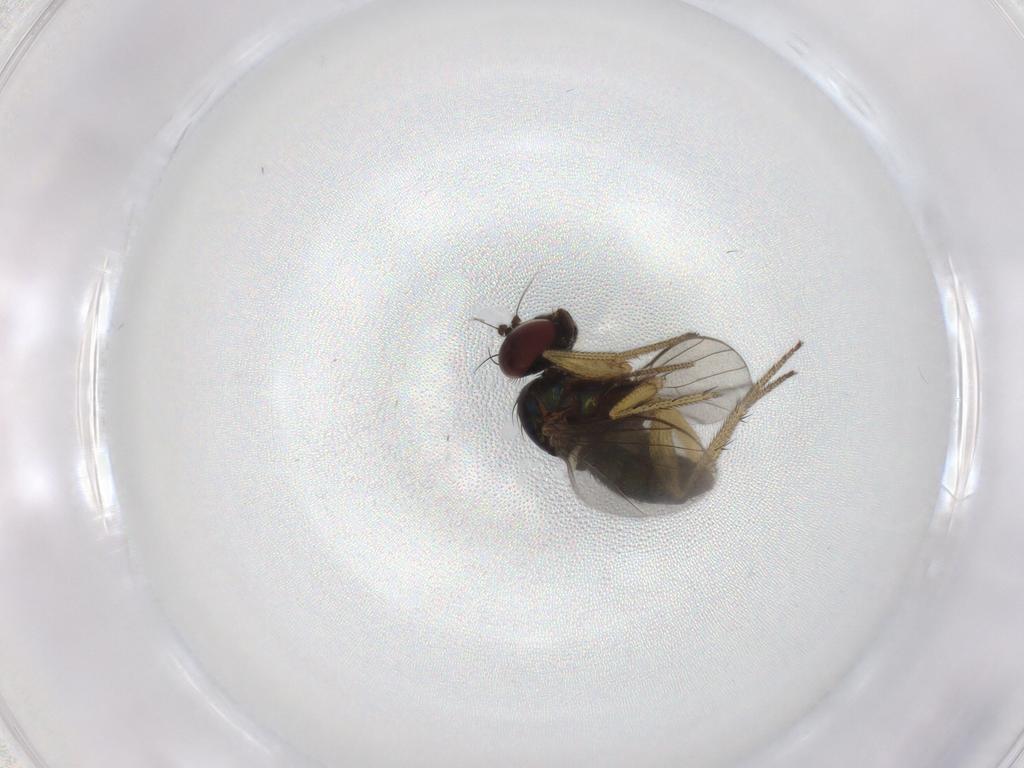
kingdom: Animalia
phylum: Arthropoda
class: Insecta
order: Diptera
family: Dolichopodidae
